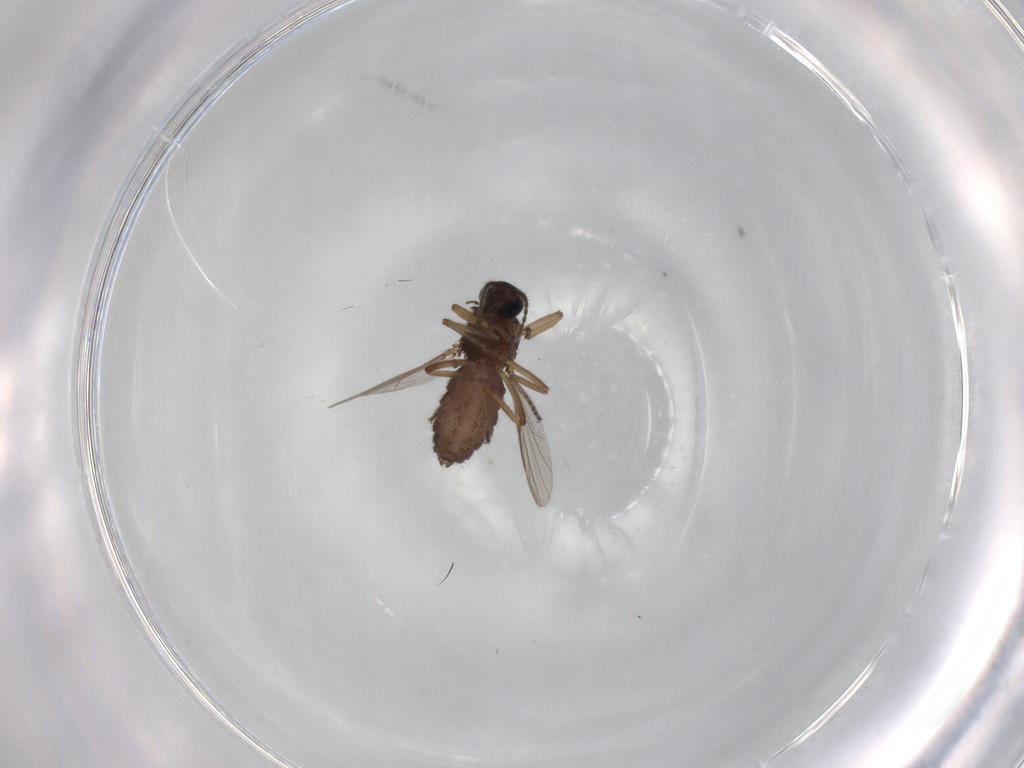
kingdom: Animalia
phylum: Arthropoda
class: Insecta
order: Diptera
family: Ceratopogonidae
